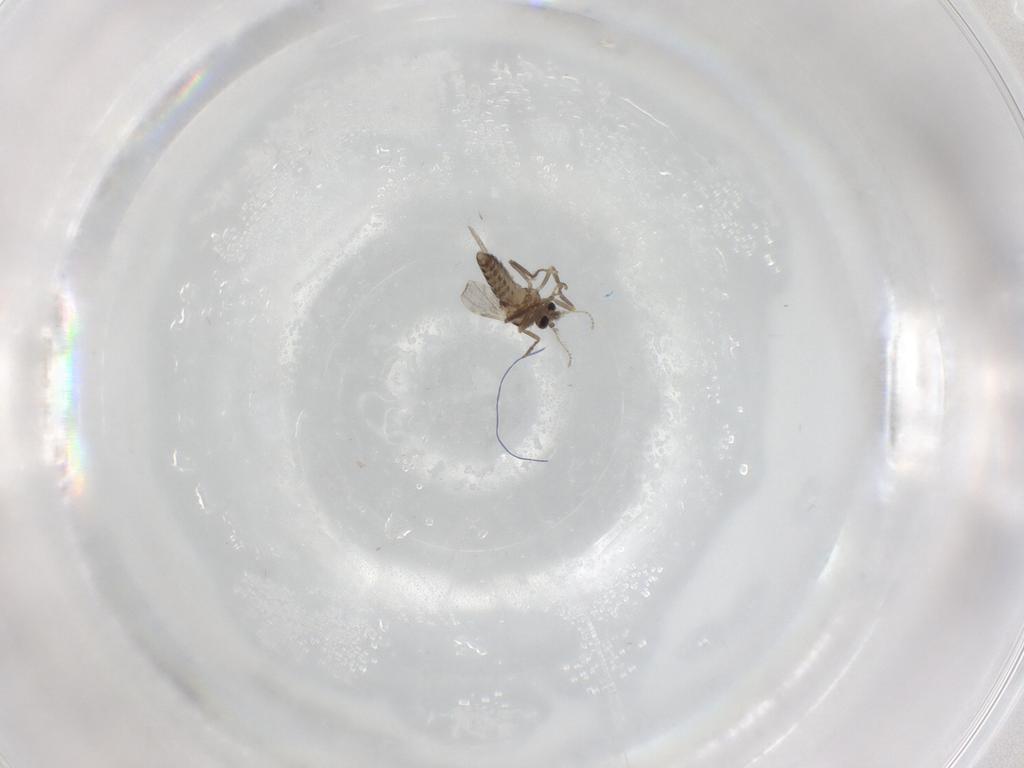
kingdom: Animalia
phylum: Arthropoda
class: Insecta
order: Diptera
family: Ceratopogonidae
